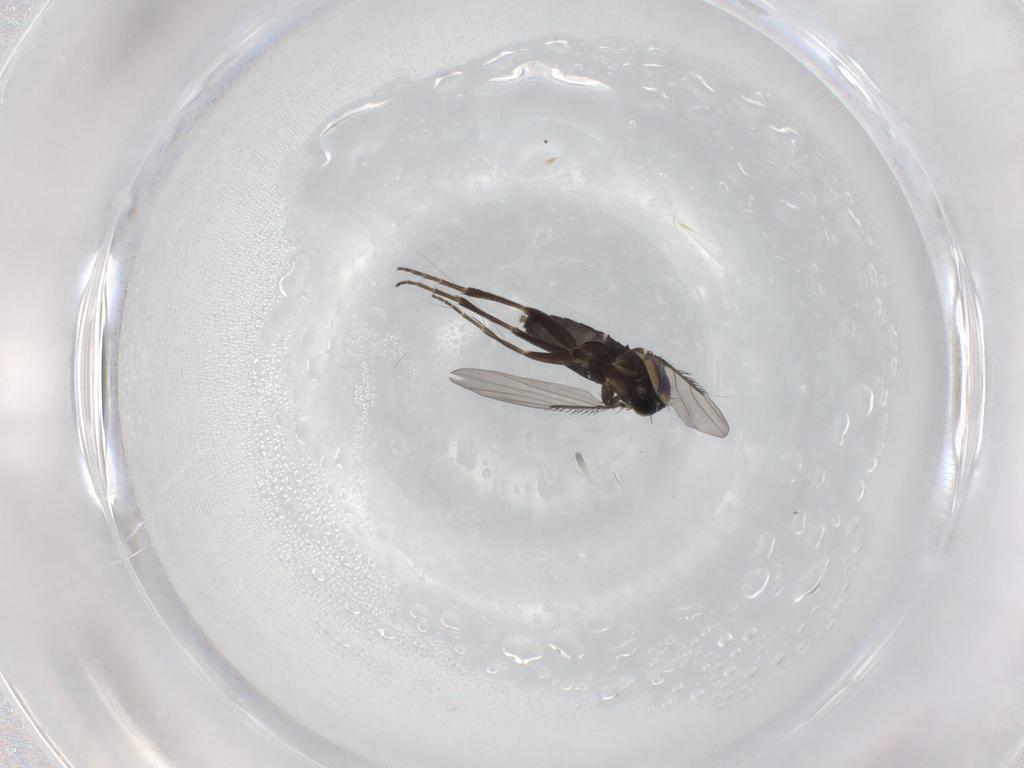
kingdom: Animalia
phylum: Arthropoda
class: Insecta
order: Diptera
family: Phoridae
